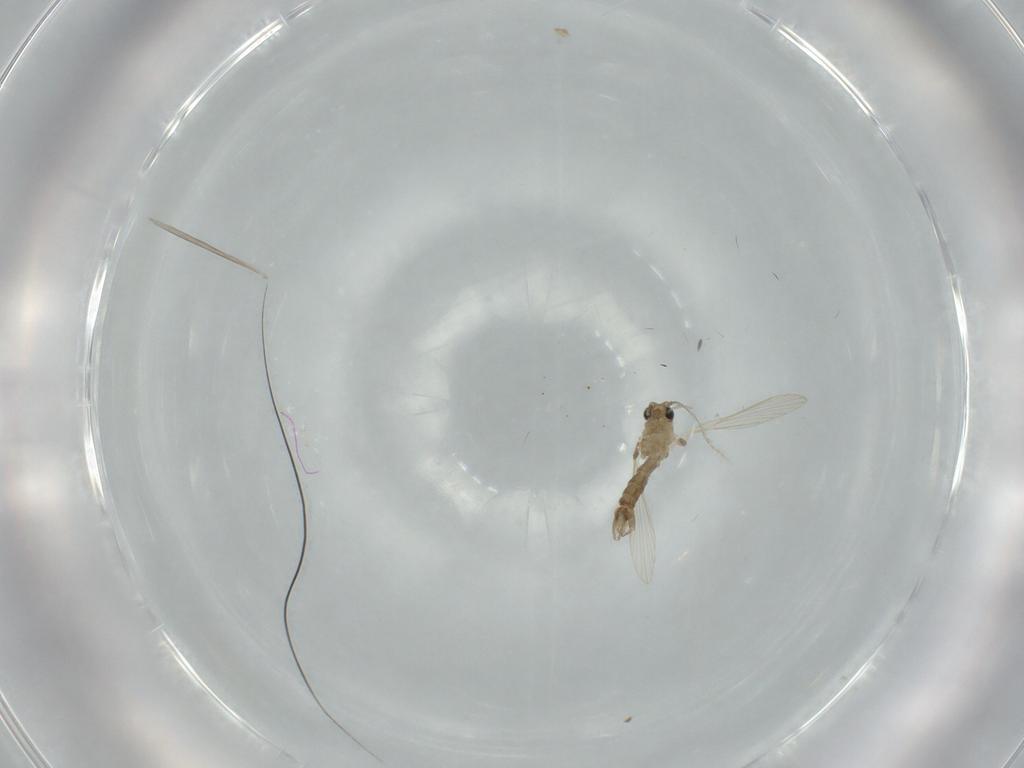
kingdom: Animalia
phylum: Arthropoda
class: Insecta
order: Diptera
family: Psychodidae
